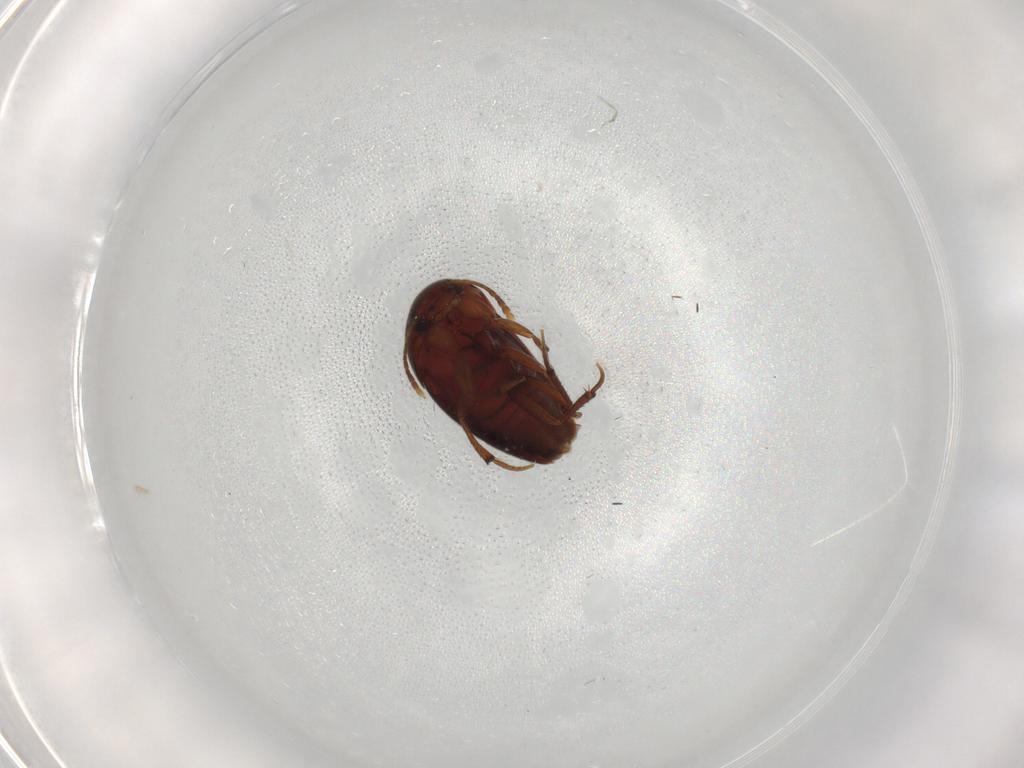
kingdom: Animalia
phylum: Arthropoda
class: Insecta
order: Coleoptera
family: Leiodidae
